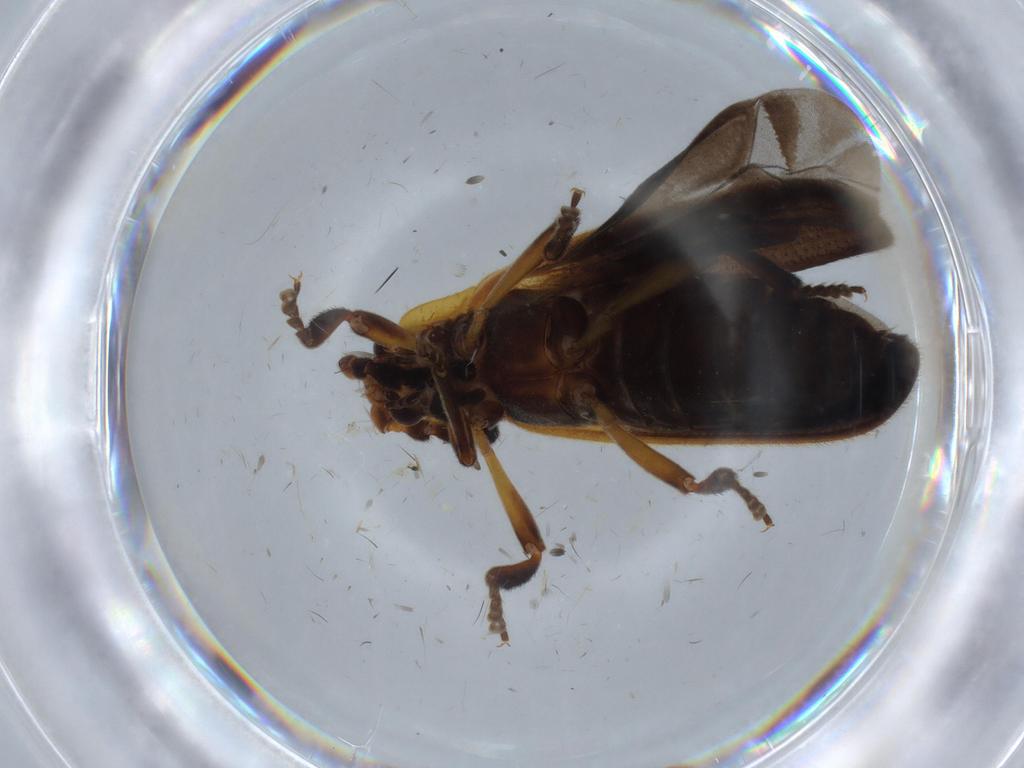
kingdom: Animalia
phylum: Arthropoda
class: Insecta
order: Coleoptera
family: Lycidae
